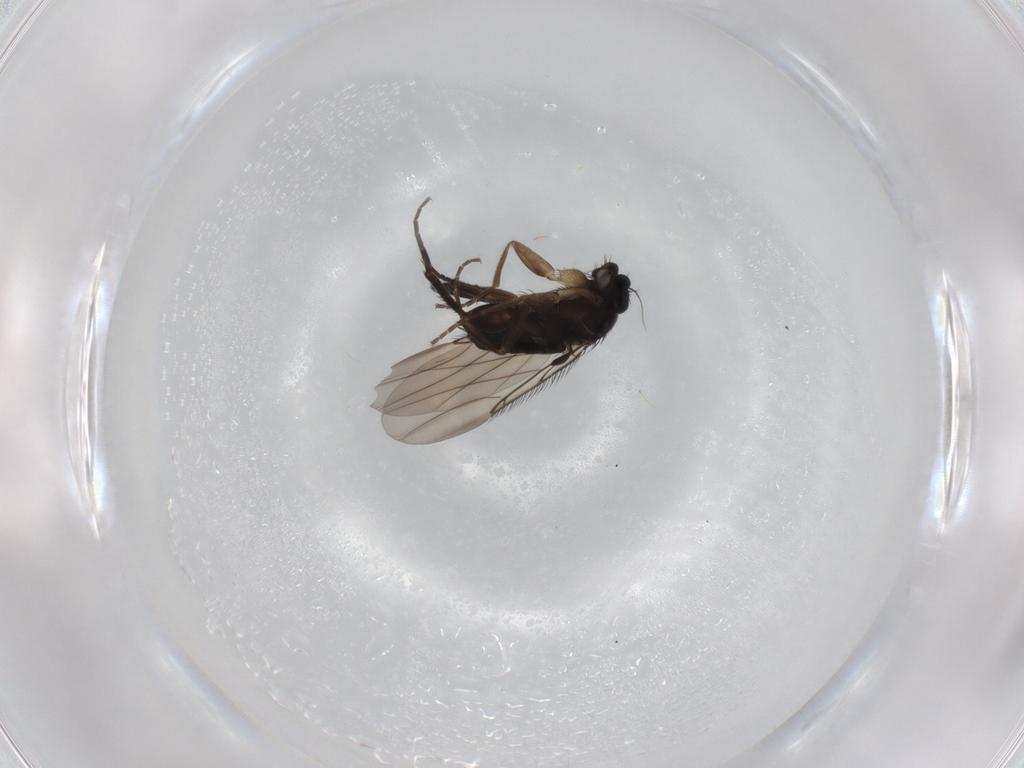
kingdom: Animalia
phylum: Arthropoda
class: Insecta
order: Diptera
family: Phoridae
